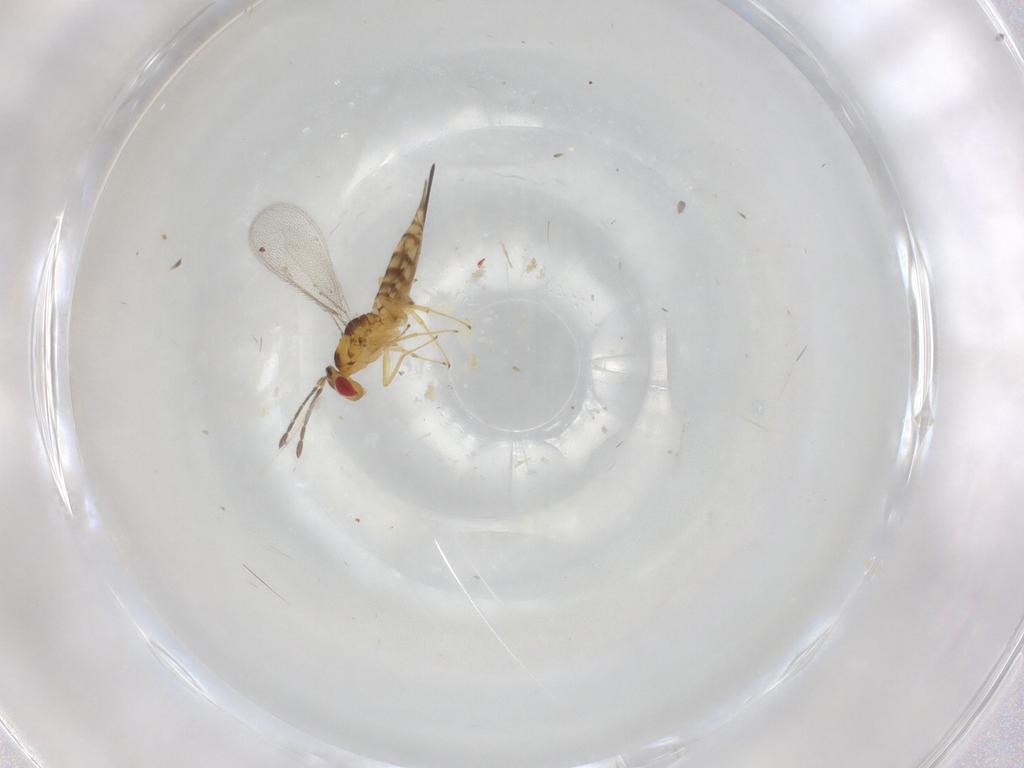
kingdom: Animalia
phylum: Arthropoda
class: Insecta
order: Hymenoptera
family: Eulophidae
